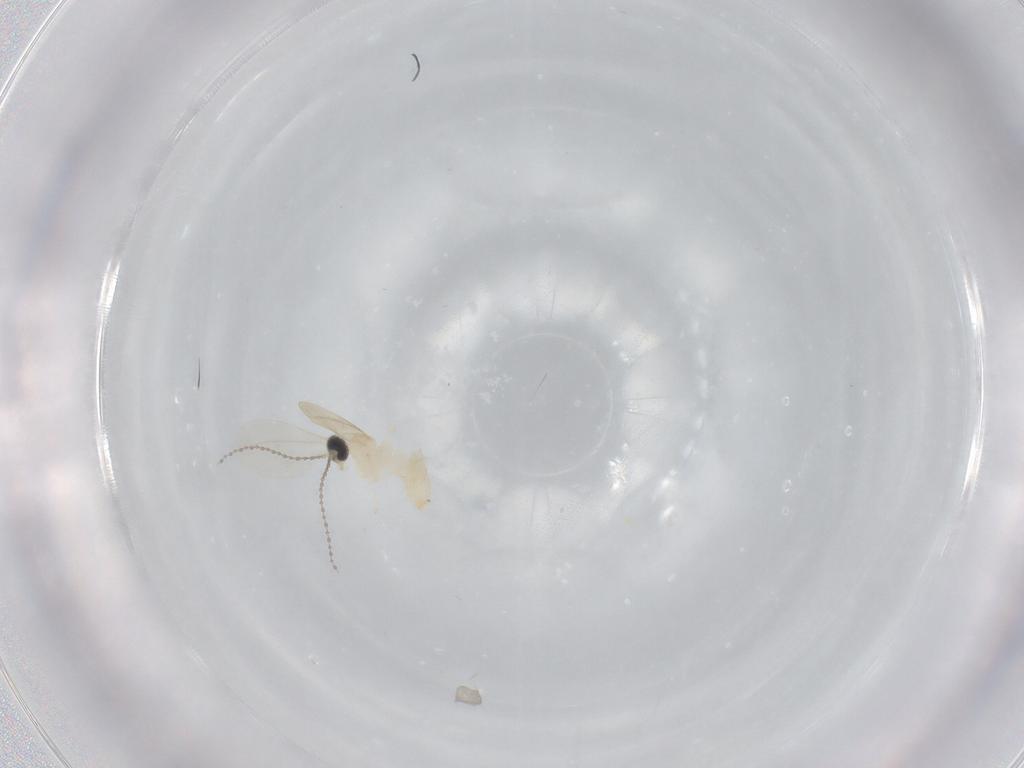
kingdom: Animalia
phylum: Arthropoda
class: Insecta
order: Diptera
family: Cecidomyiidae
